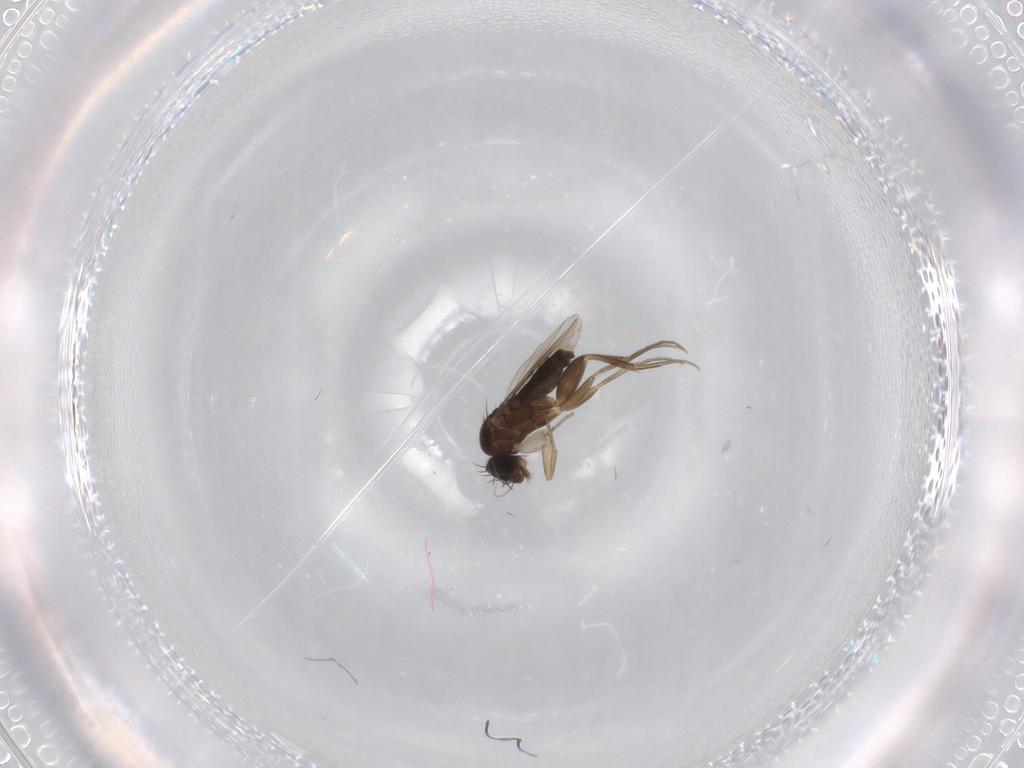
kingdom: Animalia
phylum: Arthropoda
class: Insecta
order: Diptera
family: Phoridae
